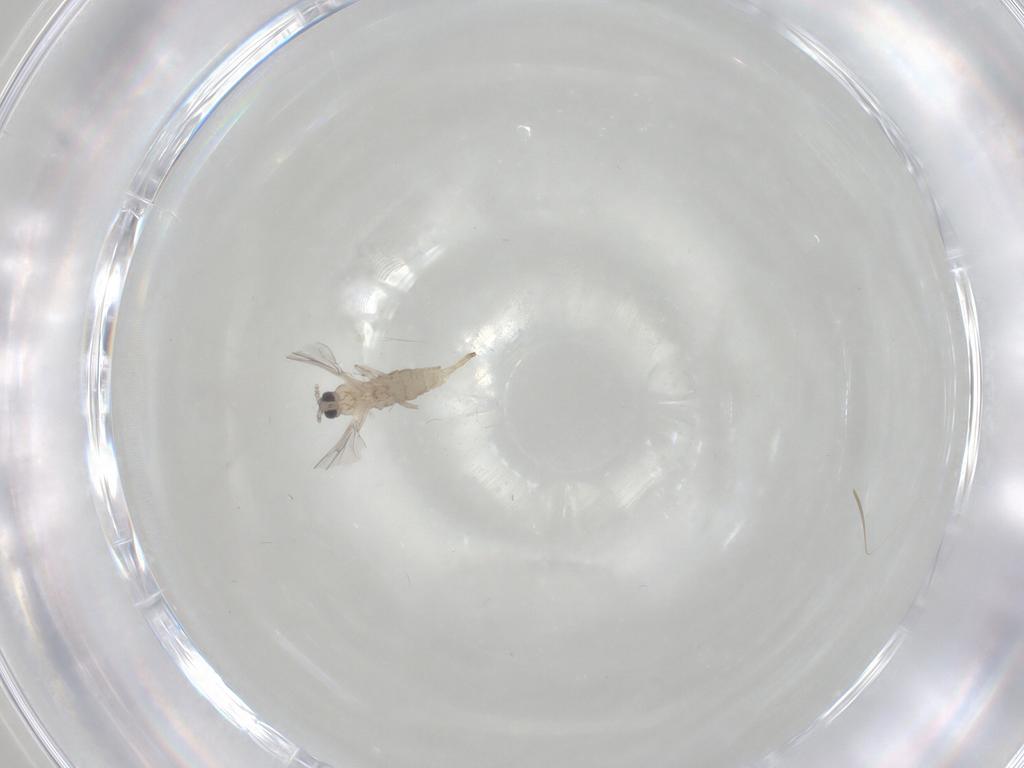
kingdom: Animalia
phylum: Arthropoda
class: Insecta
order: Diptera
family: Cecidomyiidae
